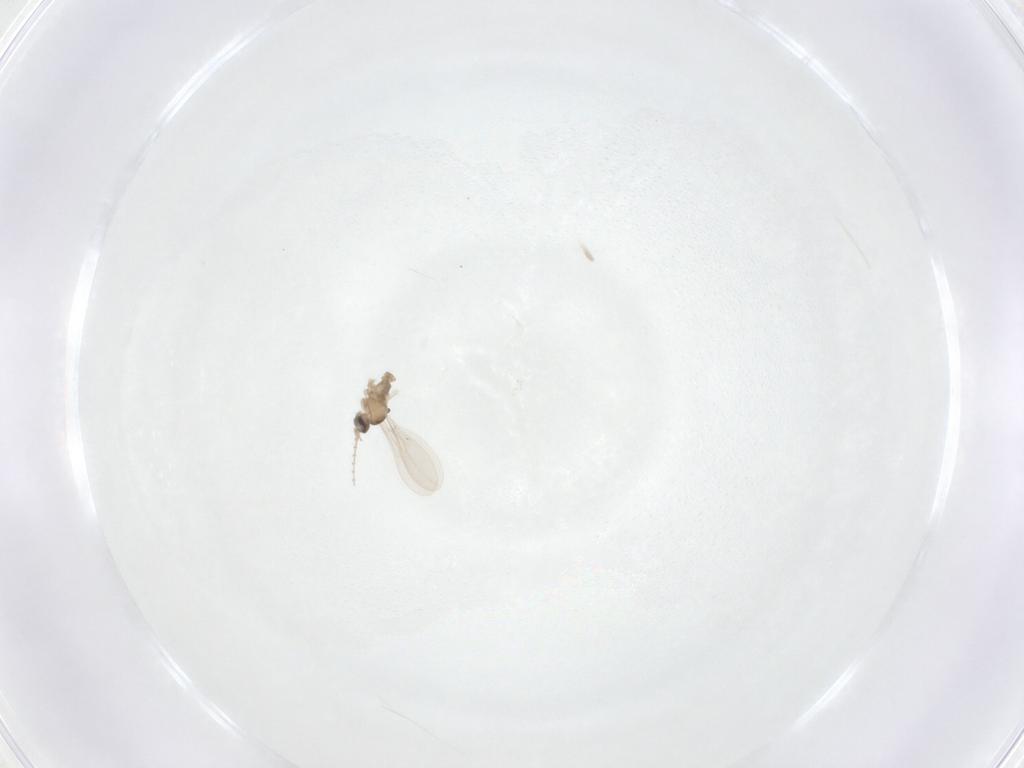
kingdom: Animalia
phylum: Arthropoda
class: Insecta
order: Diptera
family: Cecidomyiidae
